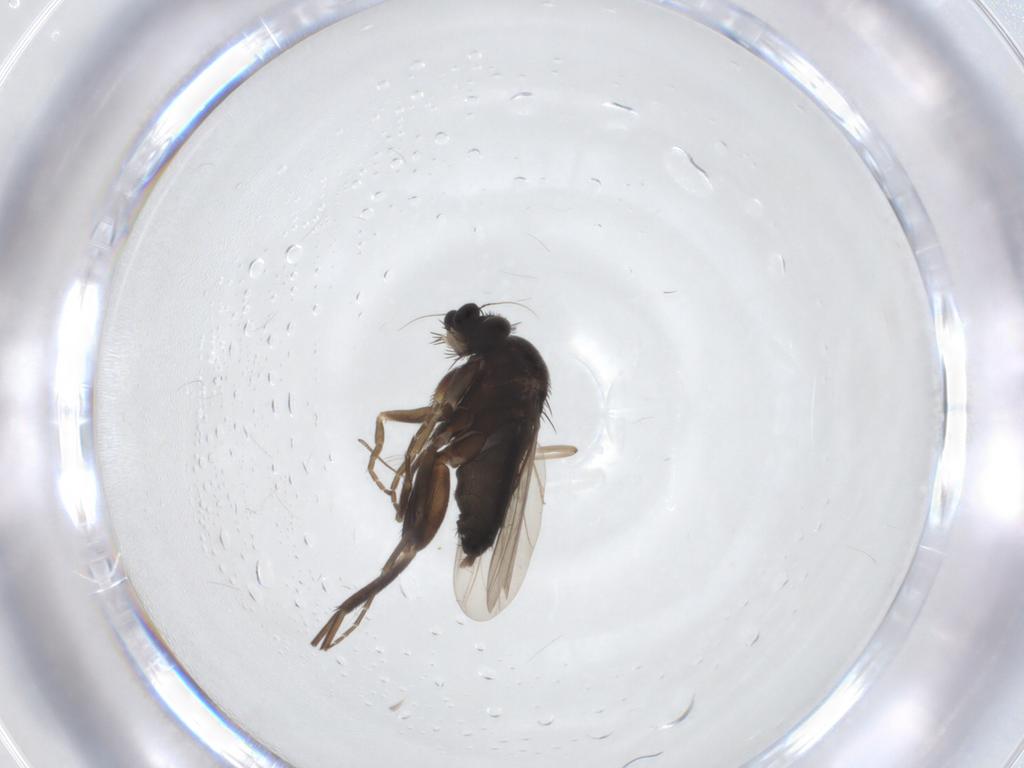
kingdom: Animalia
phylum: Arthropoda
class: Insecta
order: Diptera
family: Phoridae
